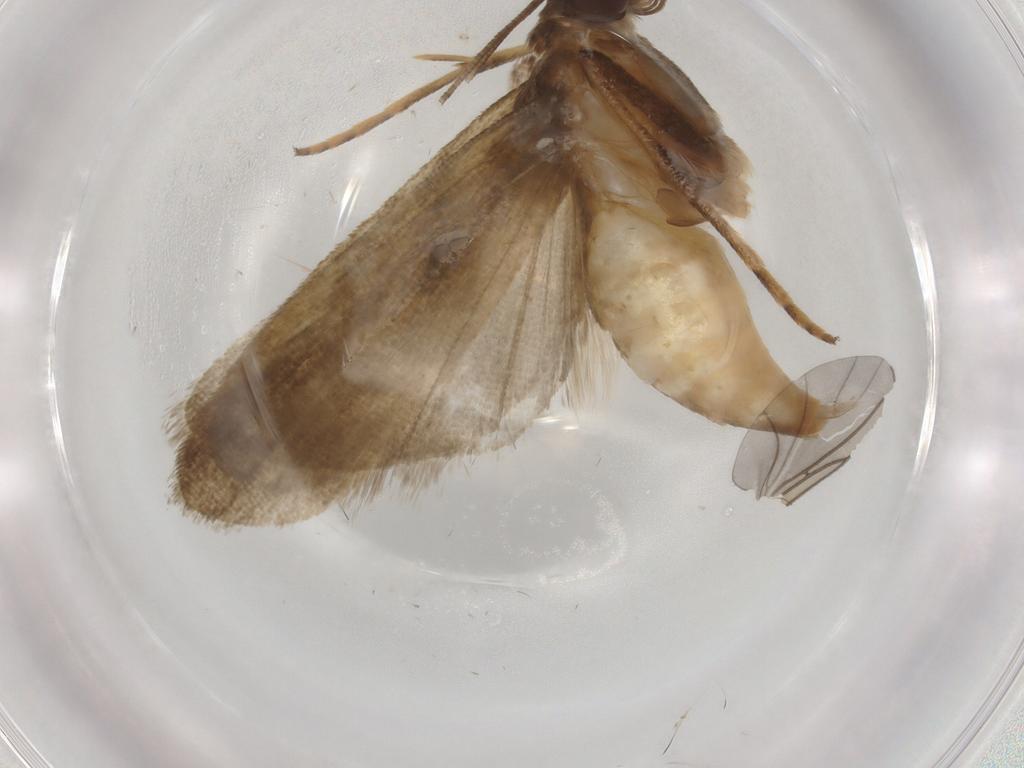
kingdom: Animalia
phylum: Arthropoda
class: Insecta
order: Lepidoptera
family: Noctuidae
